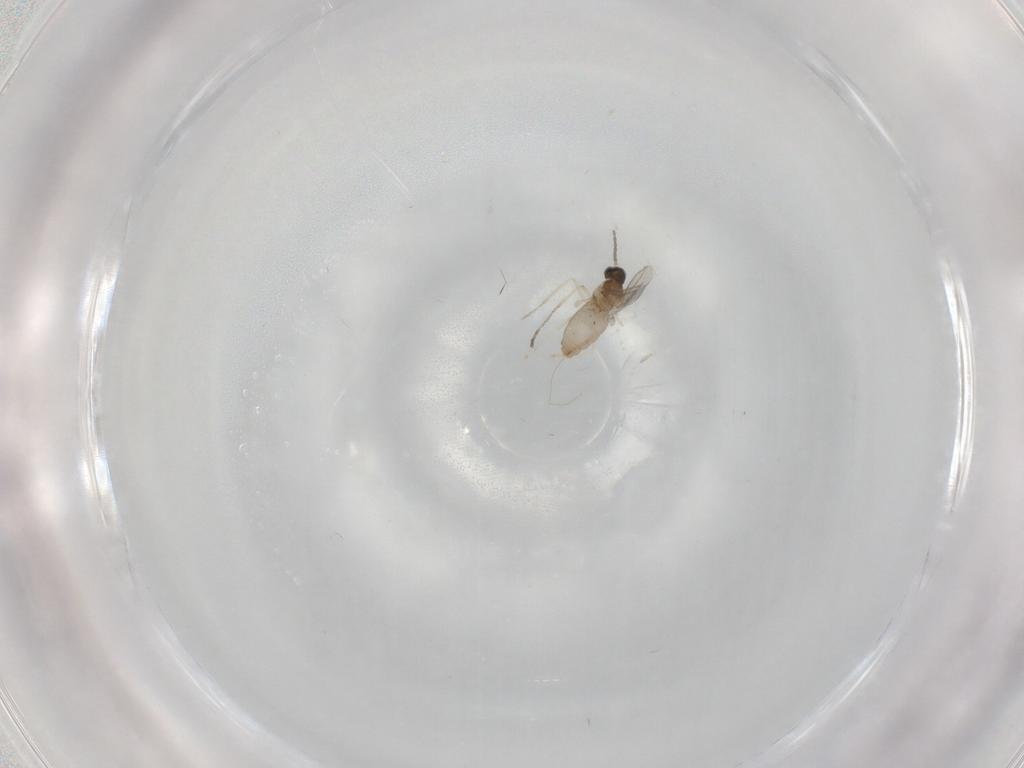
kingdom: Animalia
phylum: Arthropoda
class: Insecta
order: Diptera
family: Cecidomyiidae
